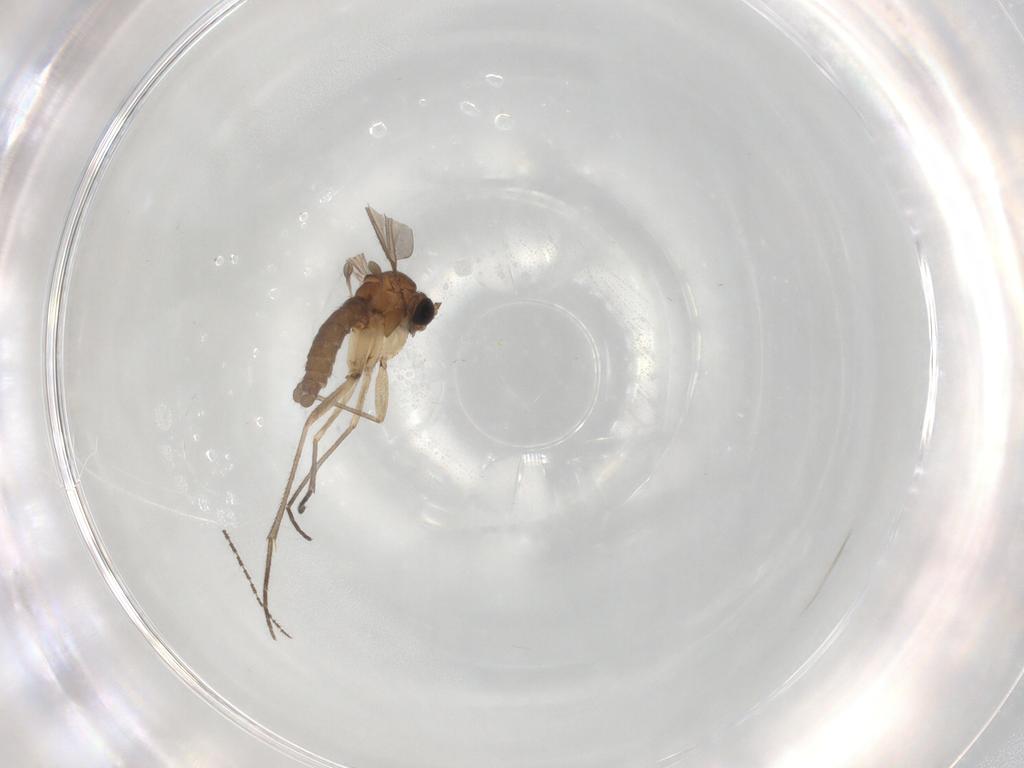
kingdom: Animalia
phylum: Arthropoda
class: Insecta
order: Diptera
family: Sciaridae
